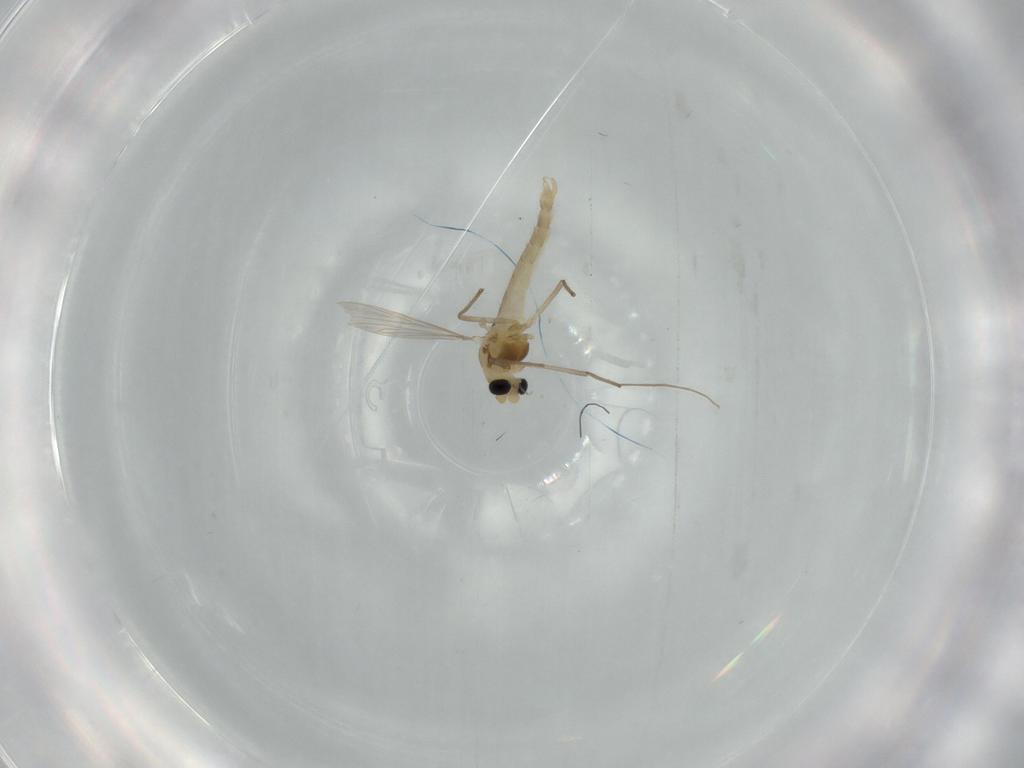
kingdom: Animalia
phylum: Arthropoda
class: Insecta
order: Diptera
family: Chironomidae
